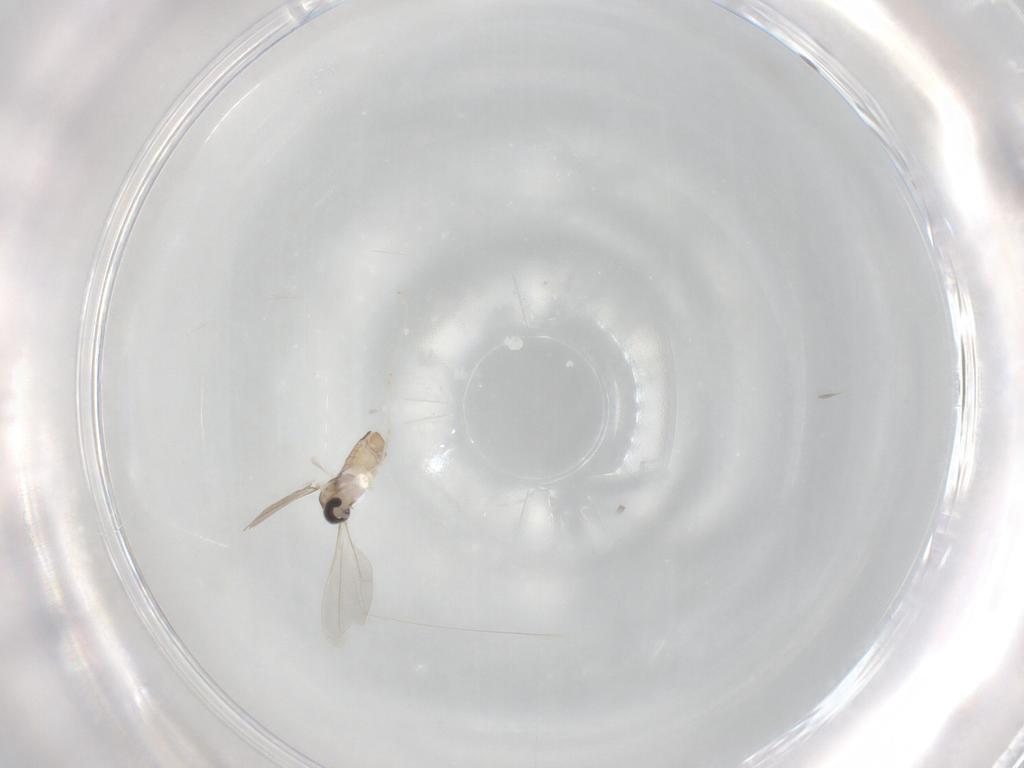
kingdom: Animalia
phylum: Arthropoda
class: Insecta
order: Diptera
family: Cecidomyiidae
